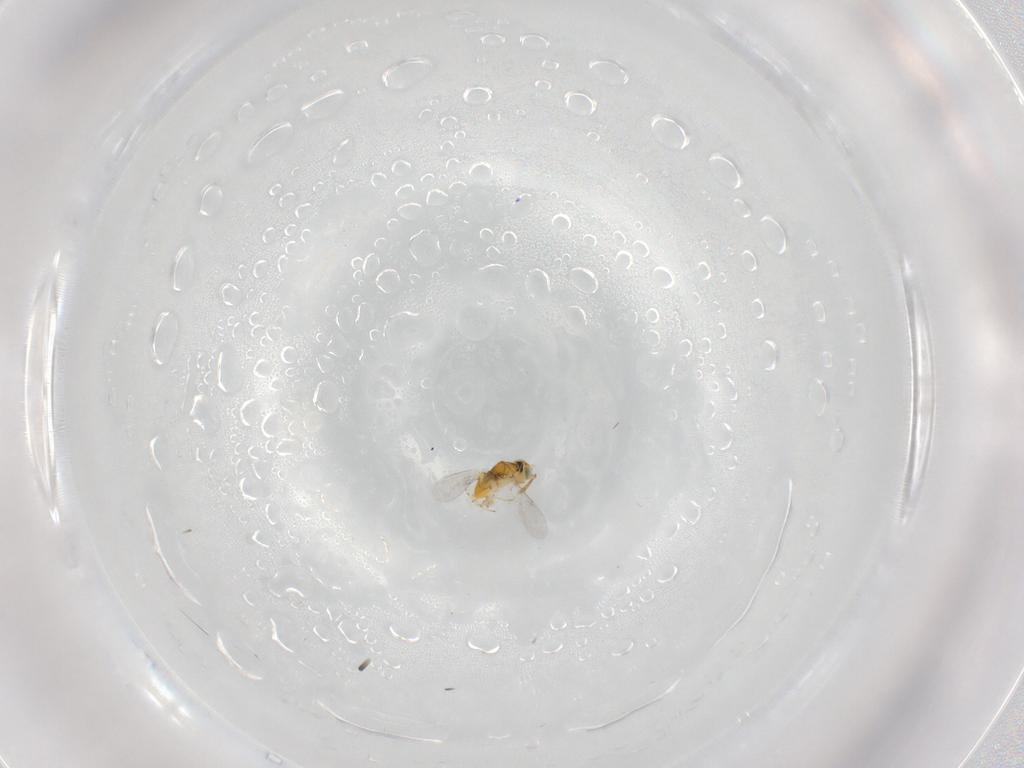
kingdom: Animalia
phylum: Arthropoda
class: Insecta
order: Hymenoptera
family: Encyrtidae
